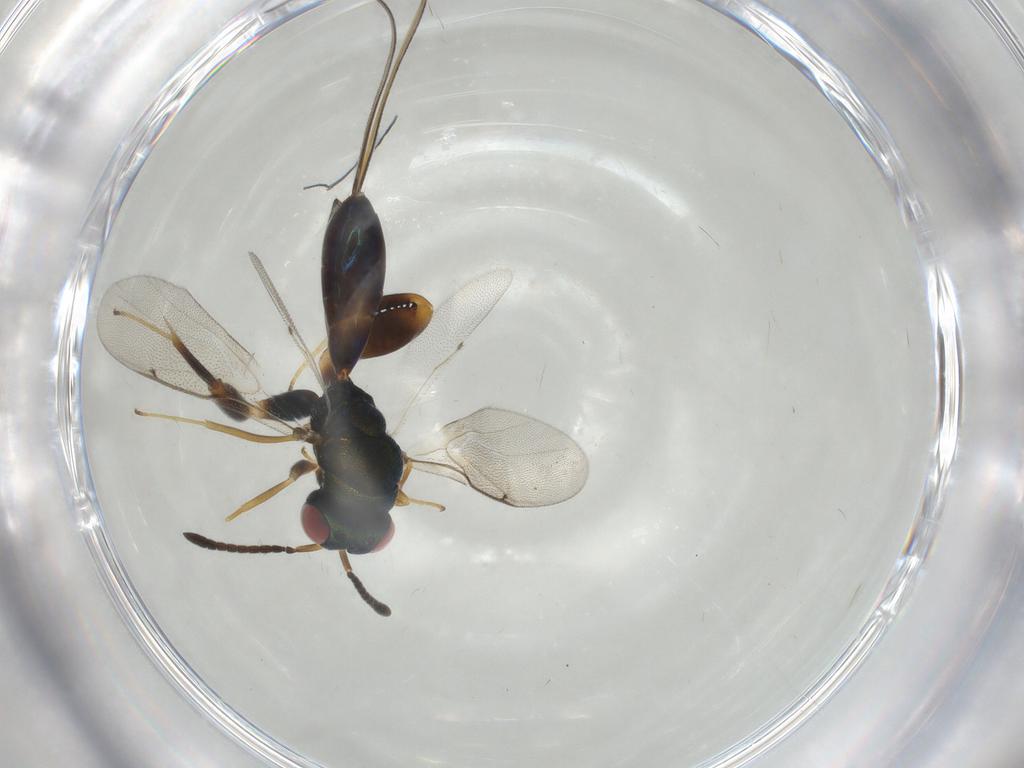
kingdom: Animalia
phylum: Arthropoda
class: Insecta
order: Hymenoptera
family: Torymidae
